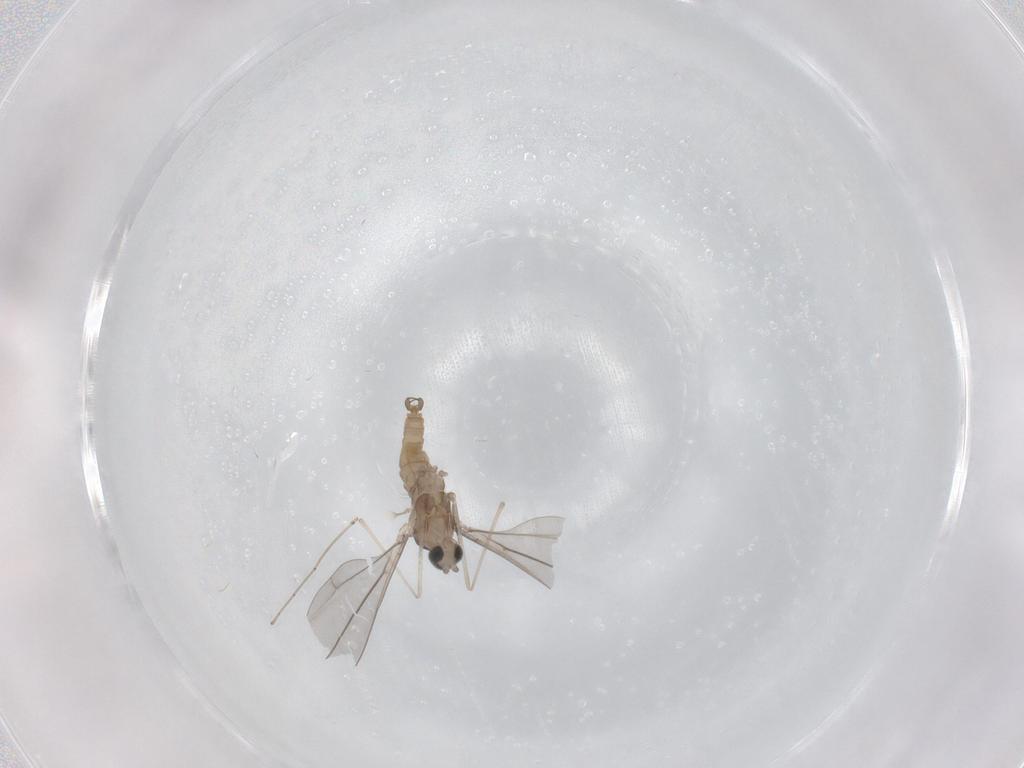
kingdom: Animalia
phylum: Arthropoda
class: Insecta
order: Diptera
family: Cecidomyiidae
